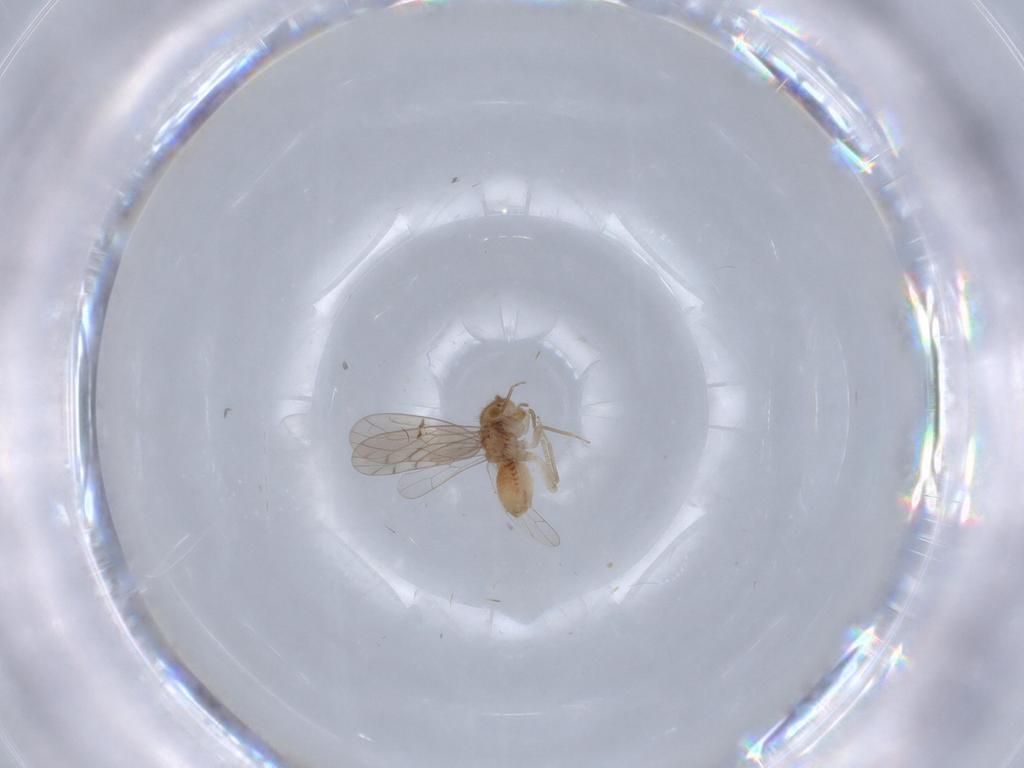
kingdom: Animalia
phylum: Arthropoda
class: Insecta
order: Psocodea
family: Ectopsocidae
